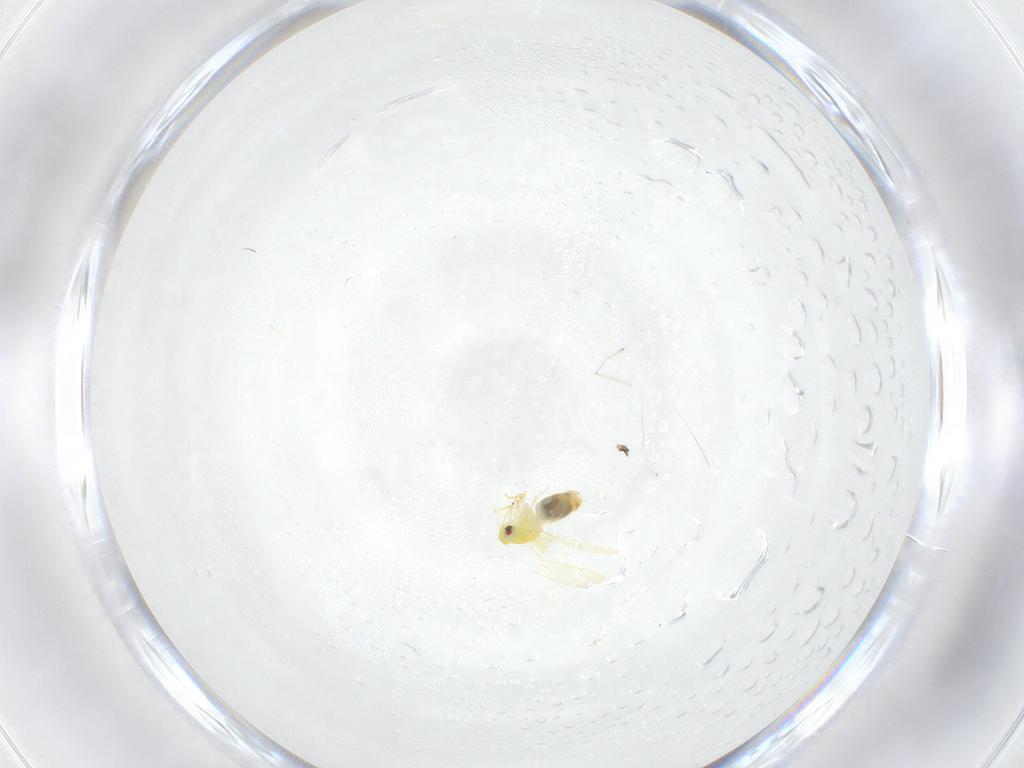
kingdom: Animalia
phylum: Arthropoda
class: Insecta
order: Hemiptera
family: Aleyrodidae
